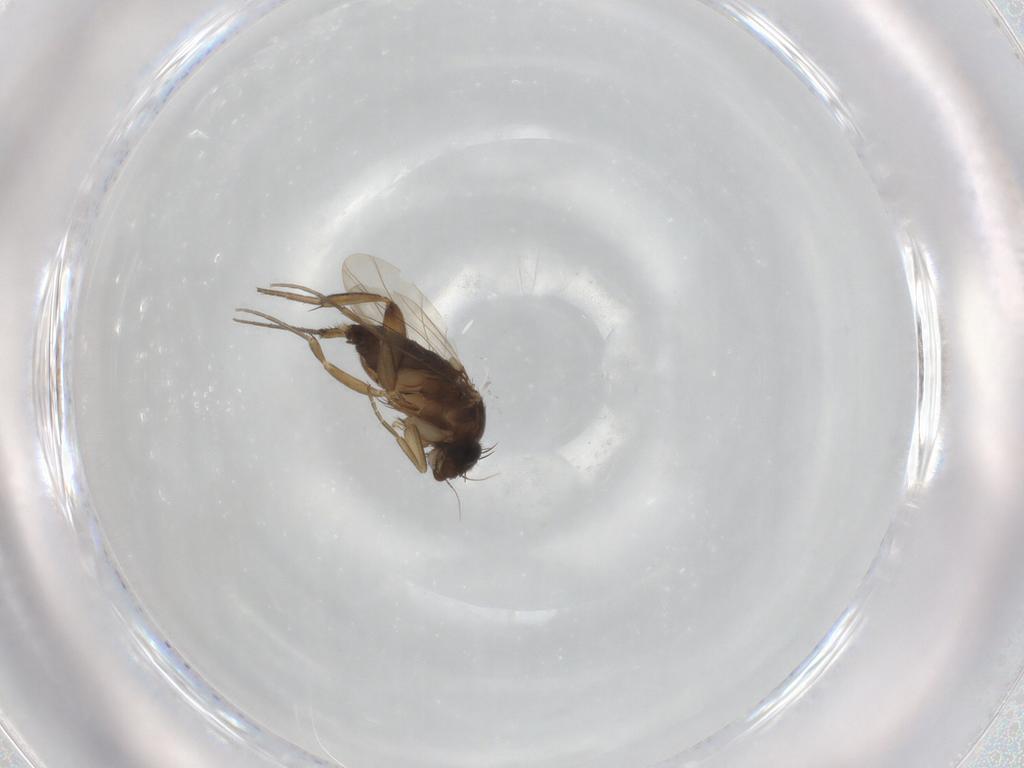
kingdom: Animalia
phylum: Arthropoda
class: Insecta
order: Diptera
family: Phoridae
